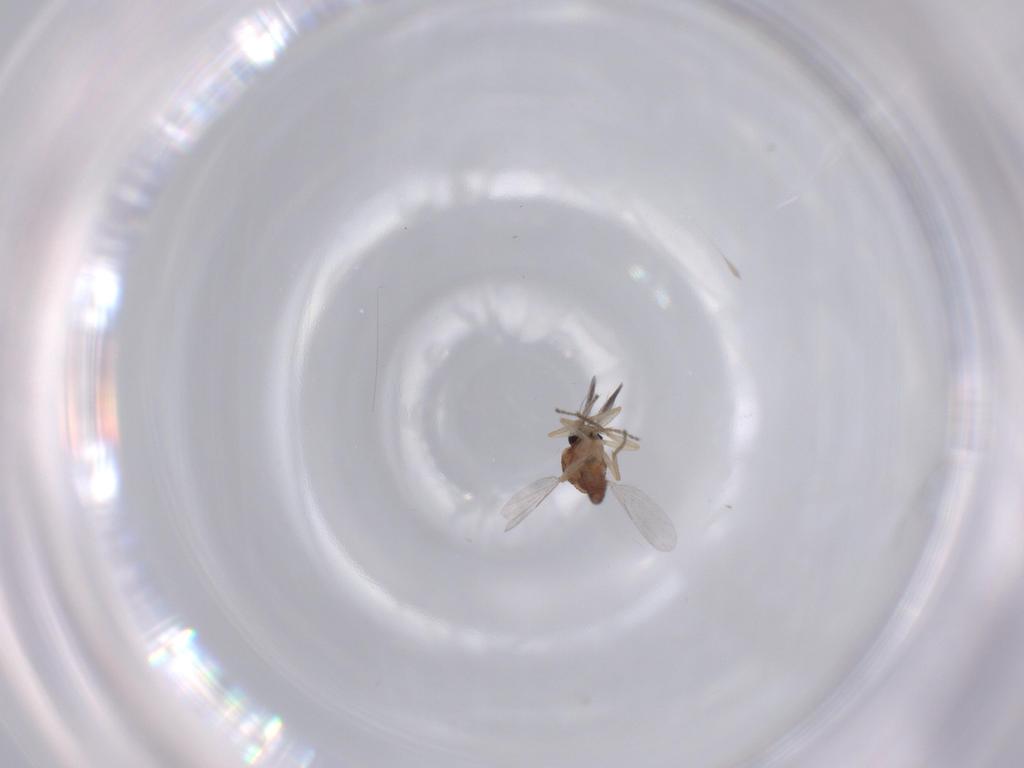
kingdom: Animalia
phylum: Arthropoda
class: Insecta
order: Diptera
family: Ceratopogonidae
